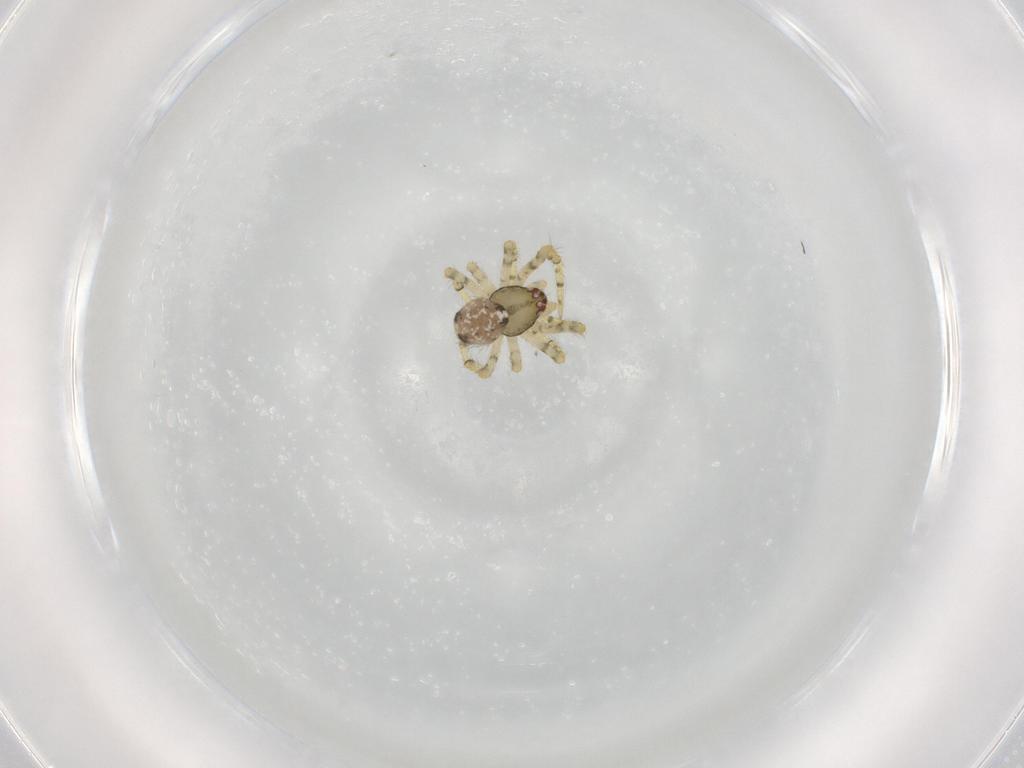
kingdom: Animalia
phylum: Arthropoda
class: Arachnida
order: Araneae
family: Theridiidae
